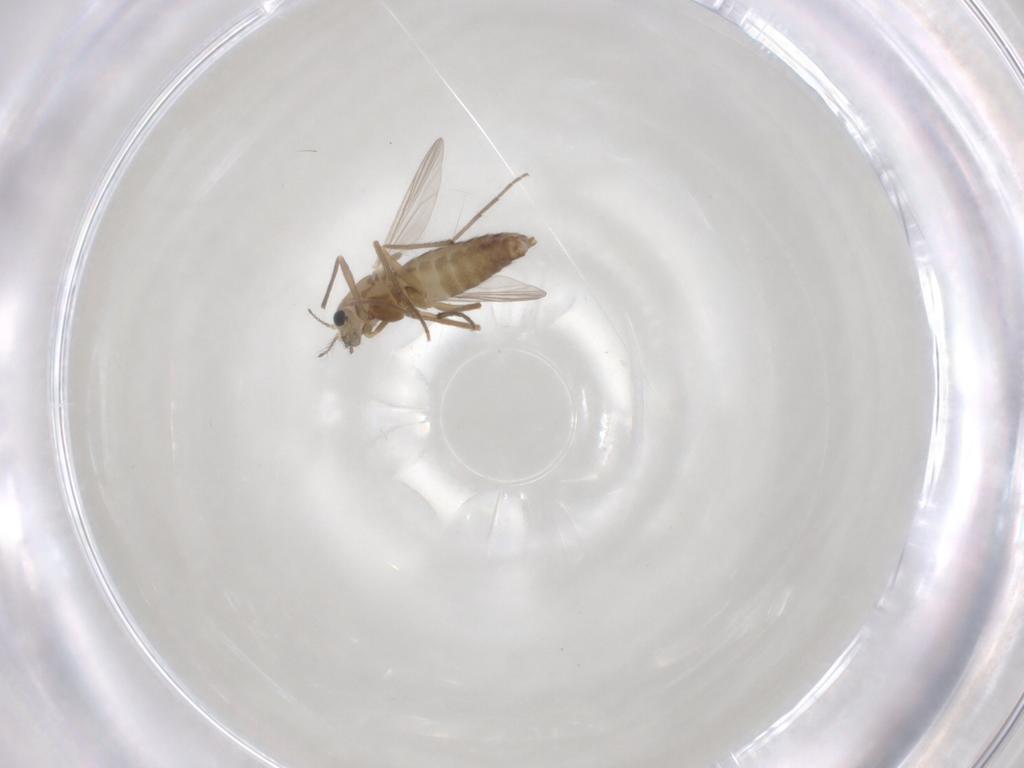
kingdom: Animalia
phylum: Arthropoda
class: Insecta
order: Diptera
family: Chironomidae
